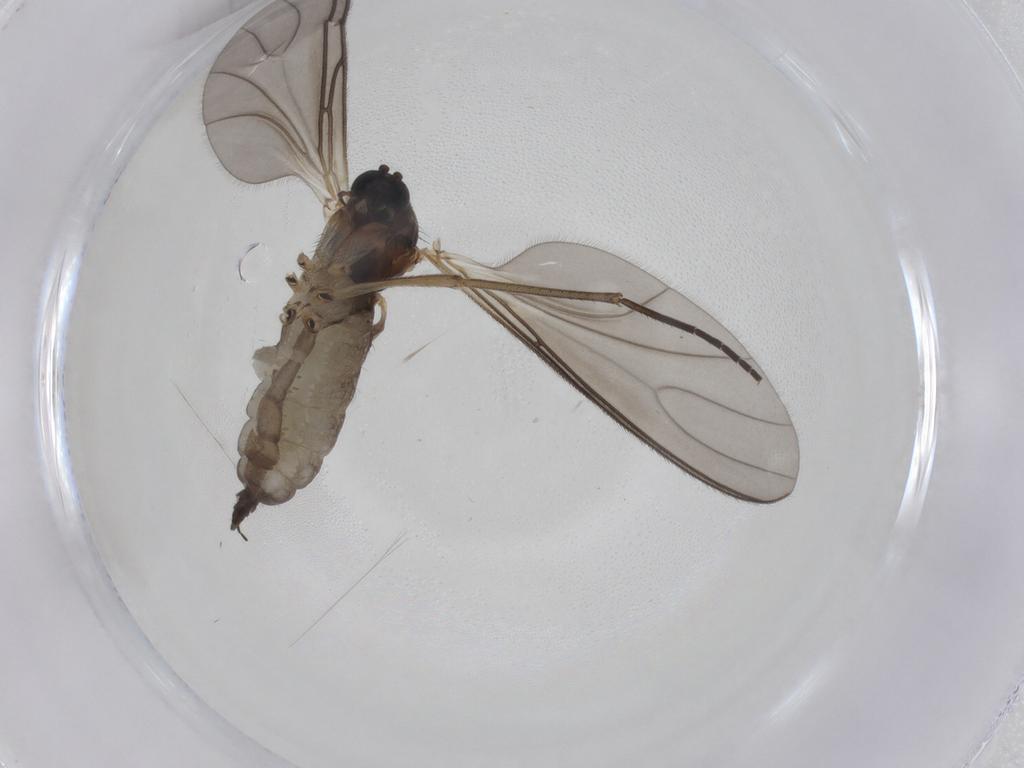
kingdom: Animalia
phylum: Arthropoda
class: Insecta
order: Diptera
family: Sciaridae
